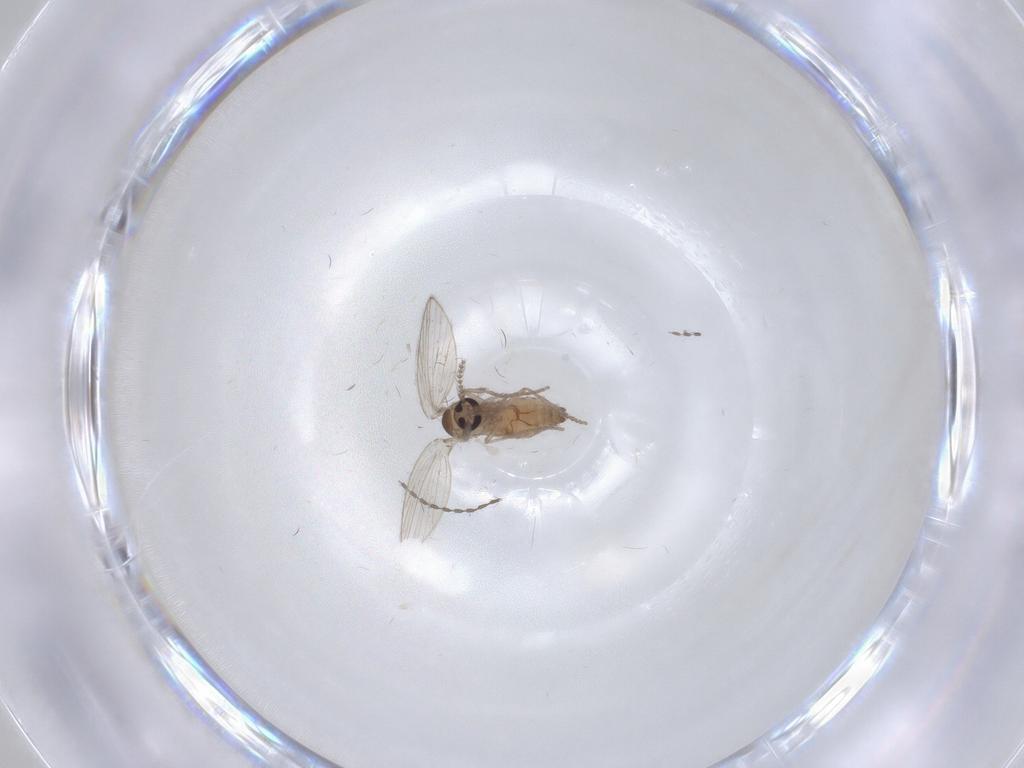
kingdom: Animalia
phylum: Arthropoda
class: Insecta
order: Diptera
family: Cecidomyiidae
